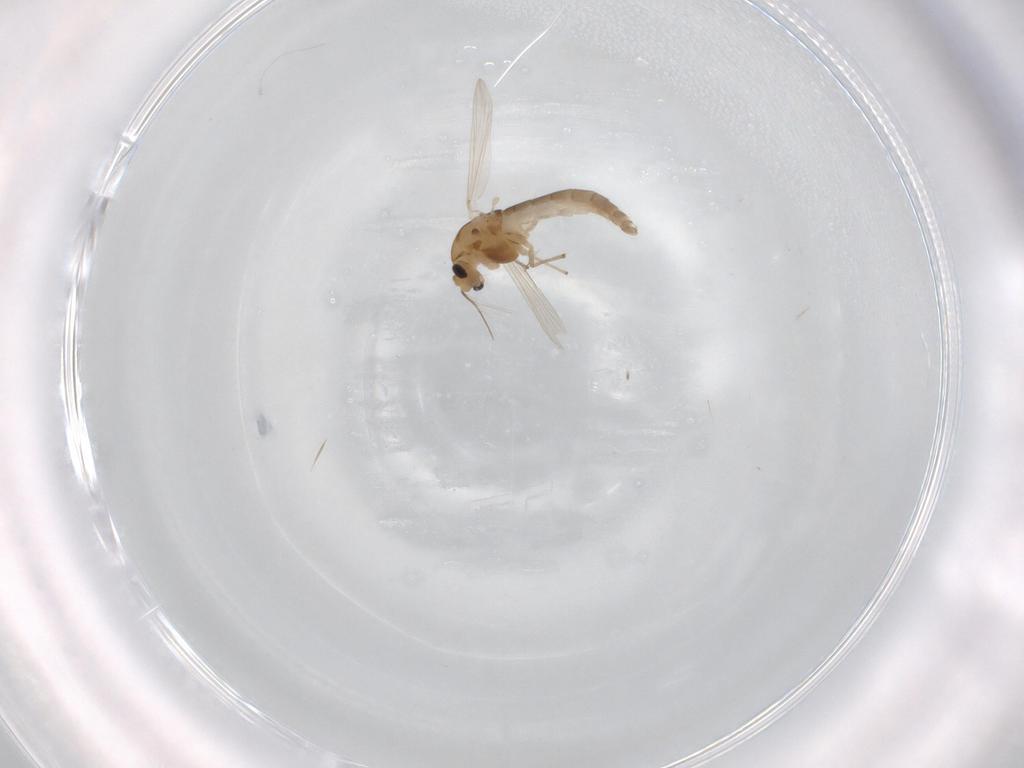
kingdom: Animalia
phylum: Arthropoda
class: Insecta
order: Diptera
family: Chironomidae
